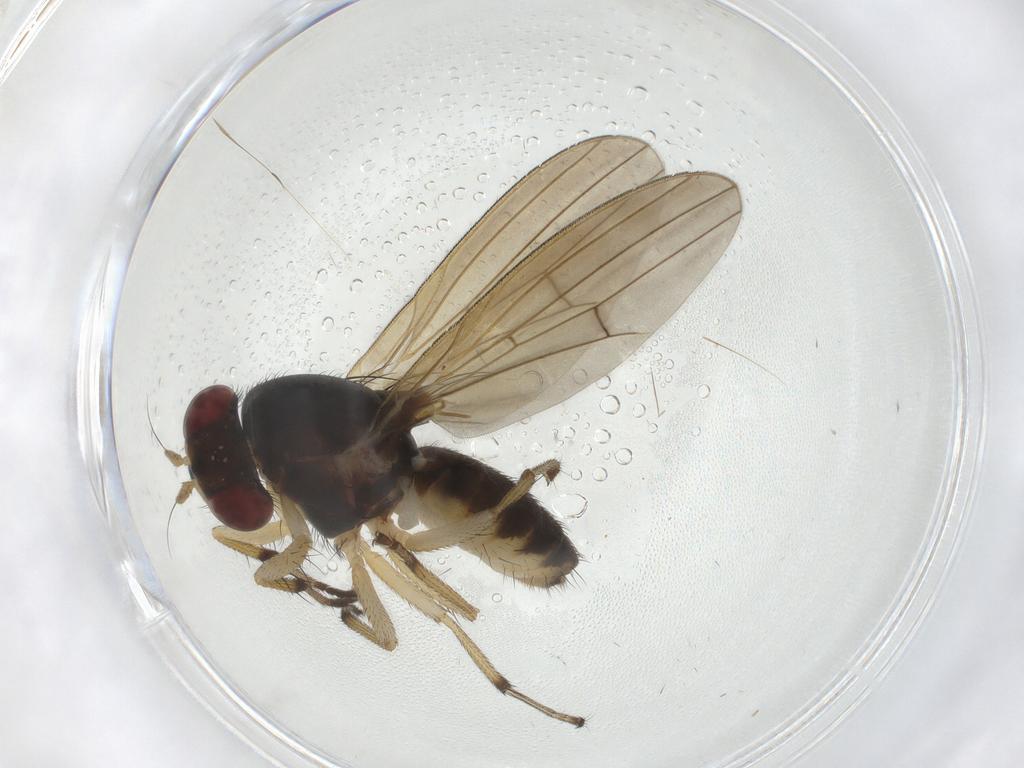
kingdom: Animalia
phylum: Arthropoda
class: Insecta
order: Diptera
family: Agromyzidae
